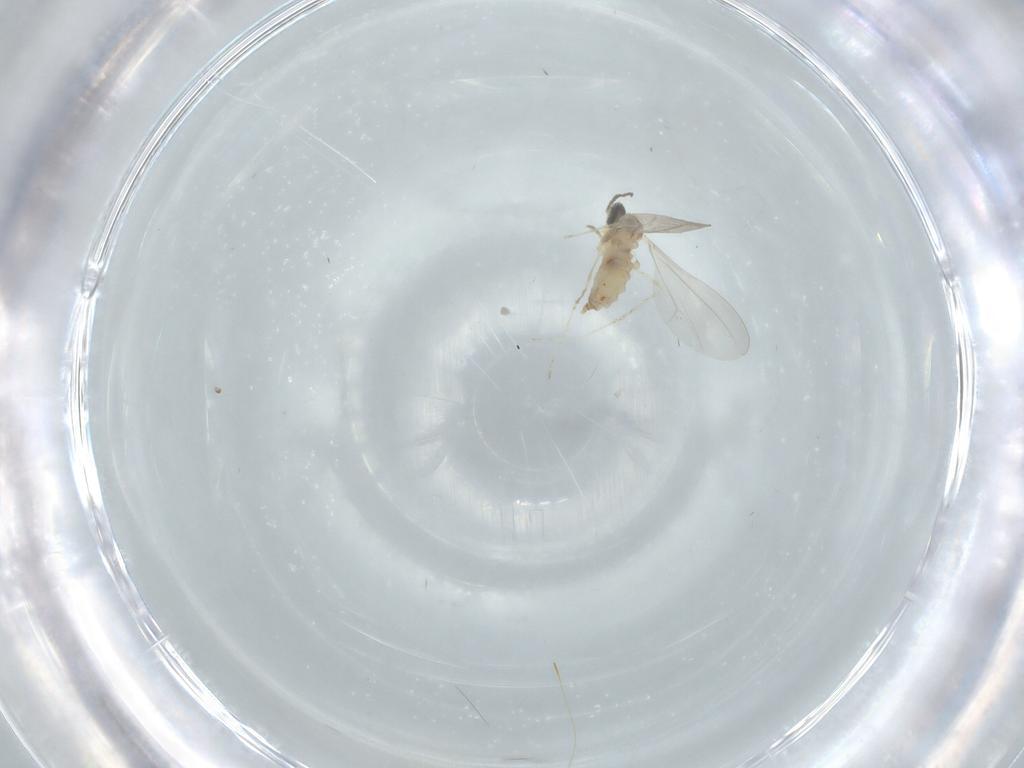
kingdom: Animalia
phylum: Arthropoda
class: Insecta
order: Diptera
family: Cecidomyiidae
